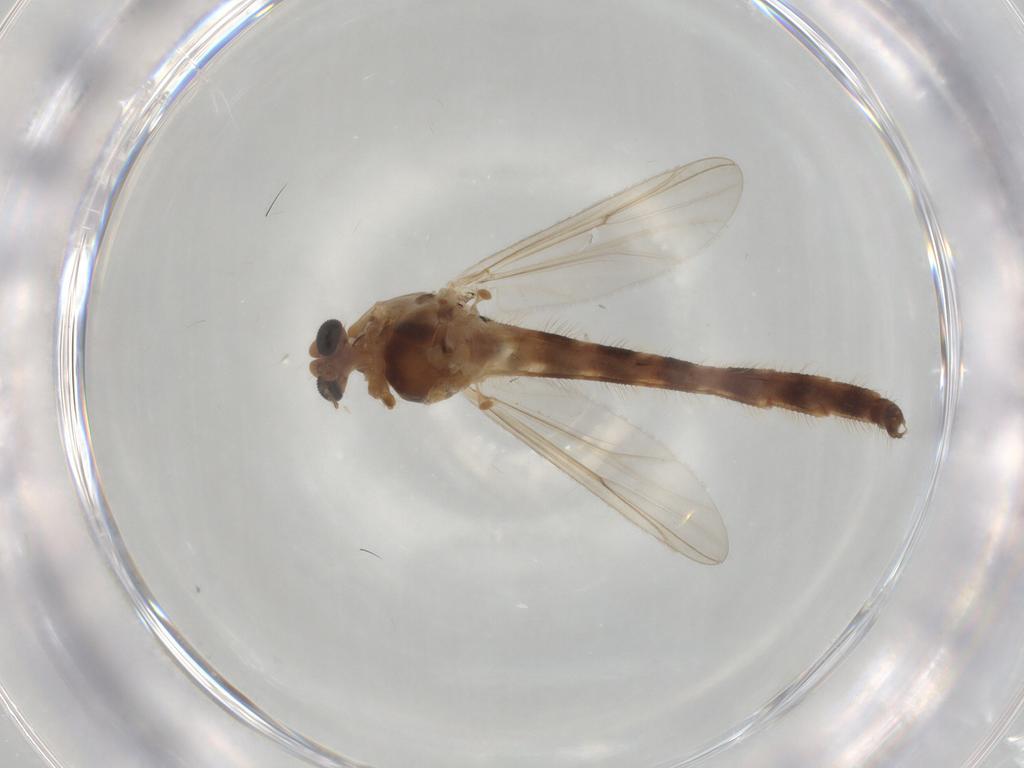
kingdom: Animalia
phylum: Arthropoda
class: Insecta
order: Diptera
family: Chironomidae
